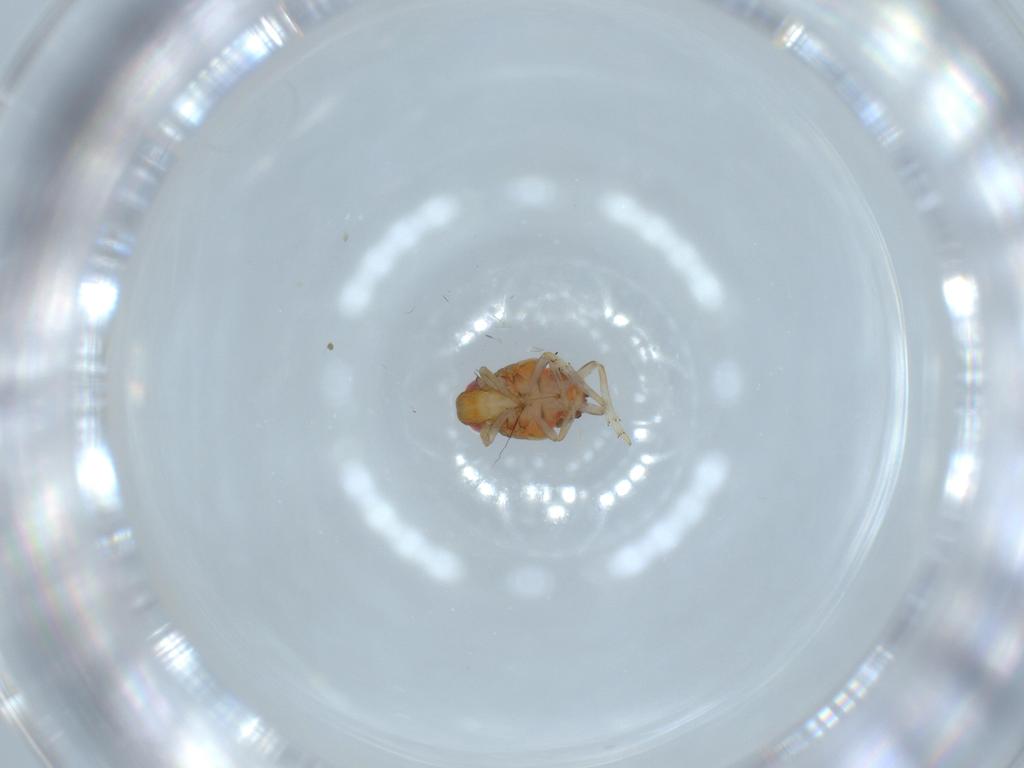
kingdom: Animalia
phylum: Arthropoda
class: Insecta
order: Hemiptera
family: Issidae
